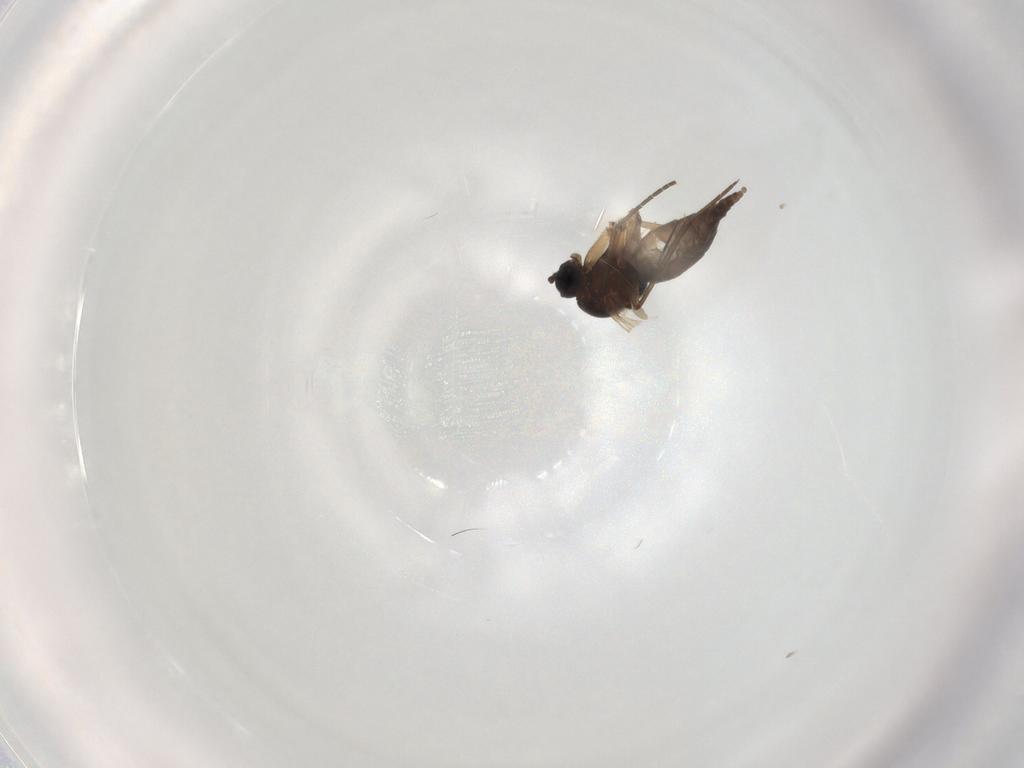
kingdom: Animalia
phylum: Arthropoda
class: Insecta
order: Diptera
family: Sciaridae
